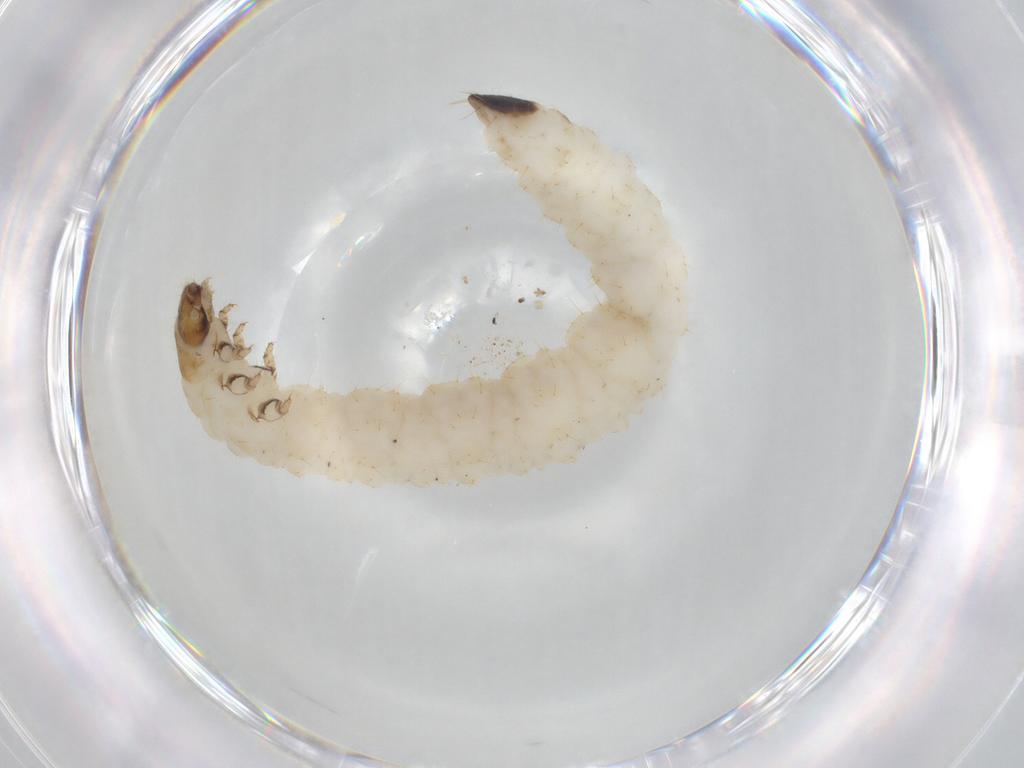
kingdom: Animalia
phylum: Arthropoda
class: Insecta
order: Coleoptera
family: Chrysomelidae
